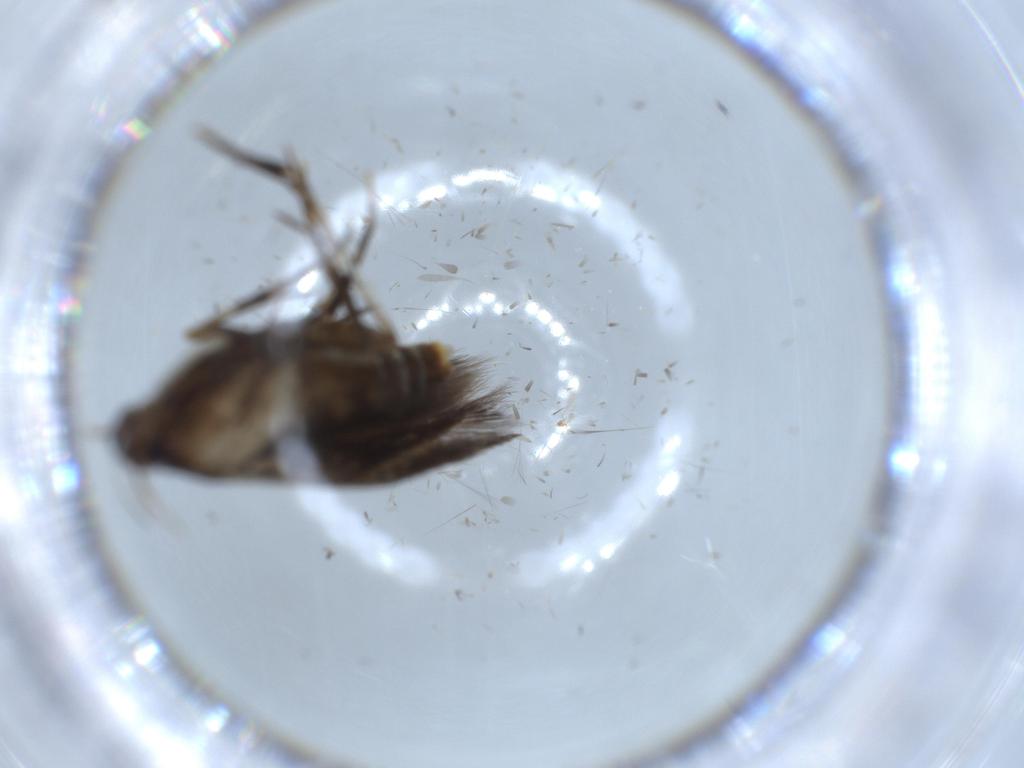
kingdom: Animalia
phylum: Arthropoda
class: Insecta
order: Lepidoptera
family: Cosmopterigidae
